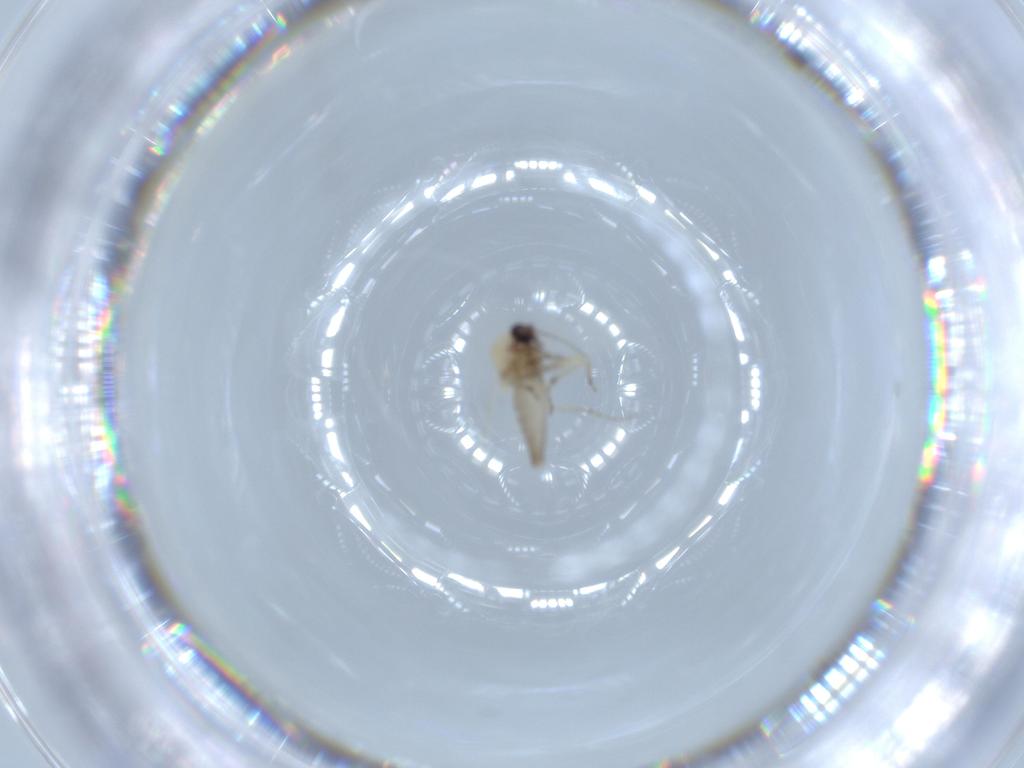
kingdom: Animalia
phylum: Arthropoda
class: Insecta
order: Diptera
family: Ceratopogonidae
